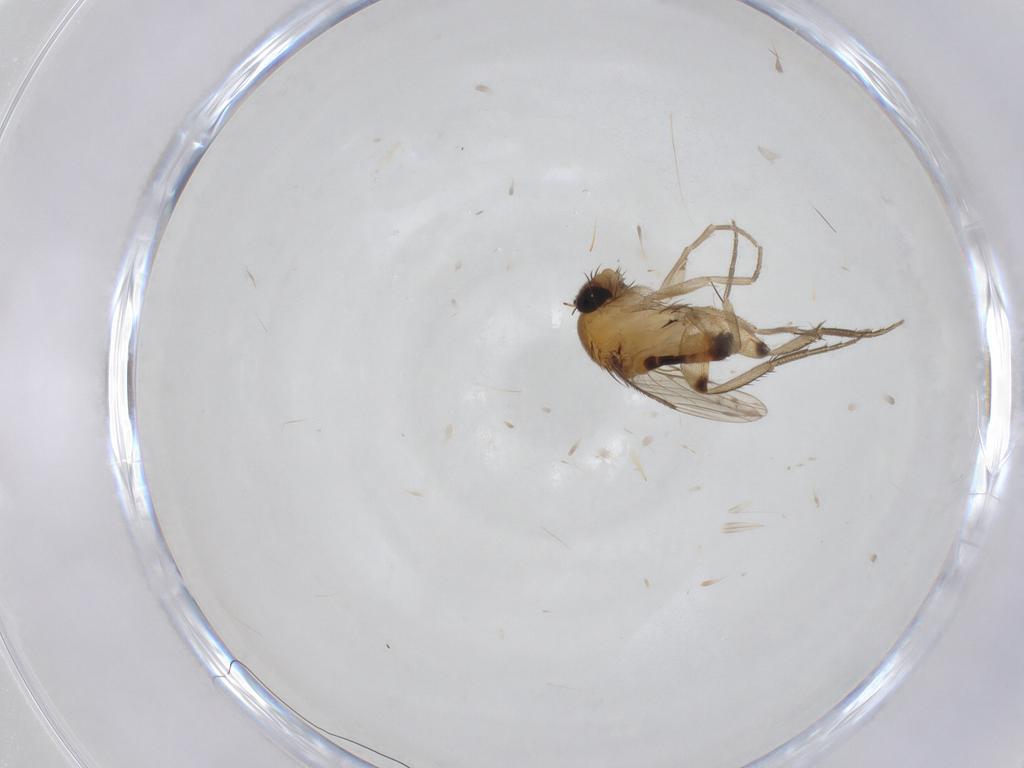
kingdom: Animalia
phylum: Arthropoda
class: Insecta
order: Diptera
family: Phoridae
